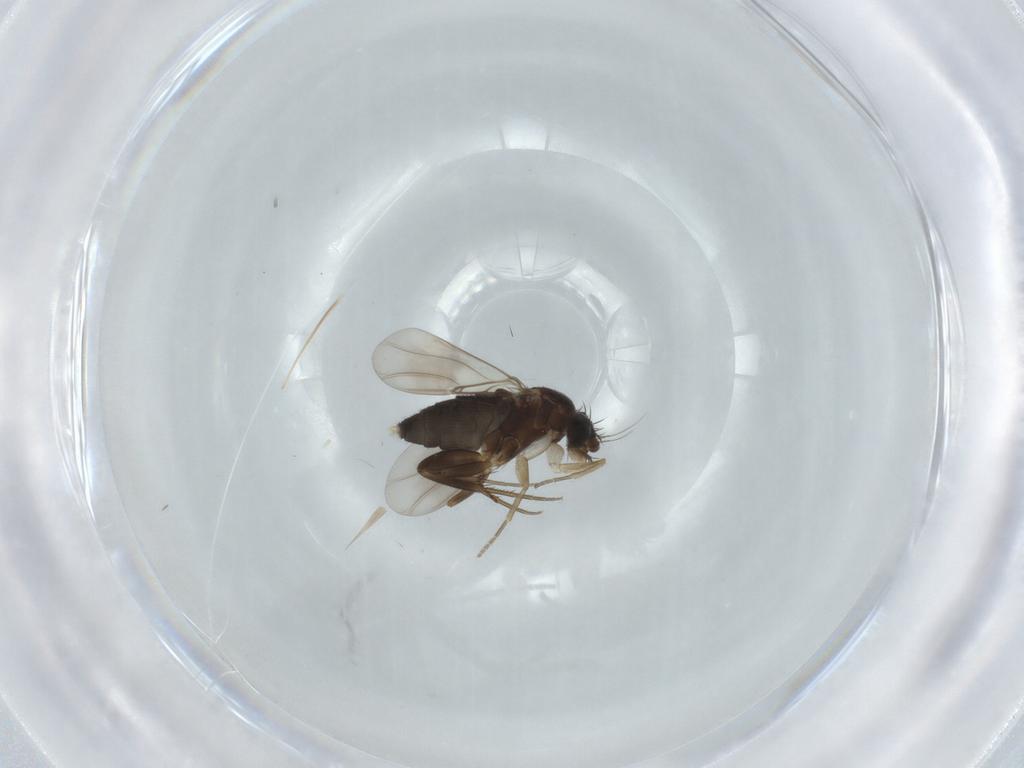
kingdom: Animalia
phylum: Arthropoda
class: Insecta
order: Diptera
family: Phoridae
